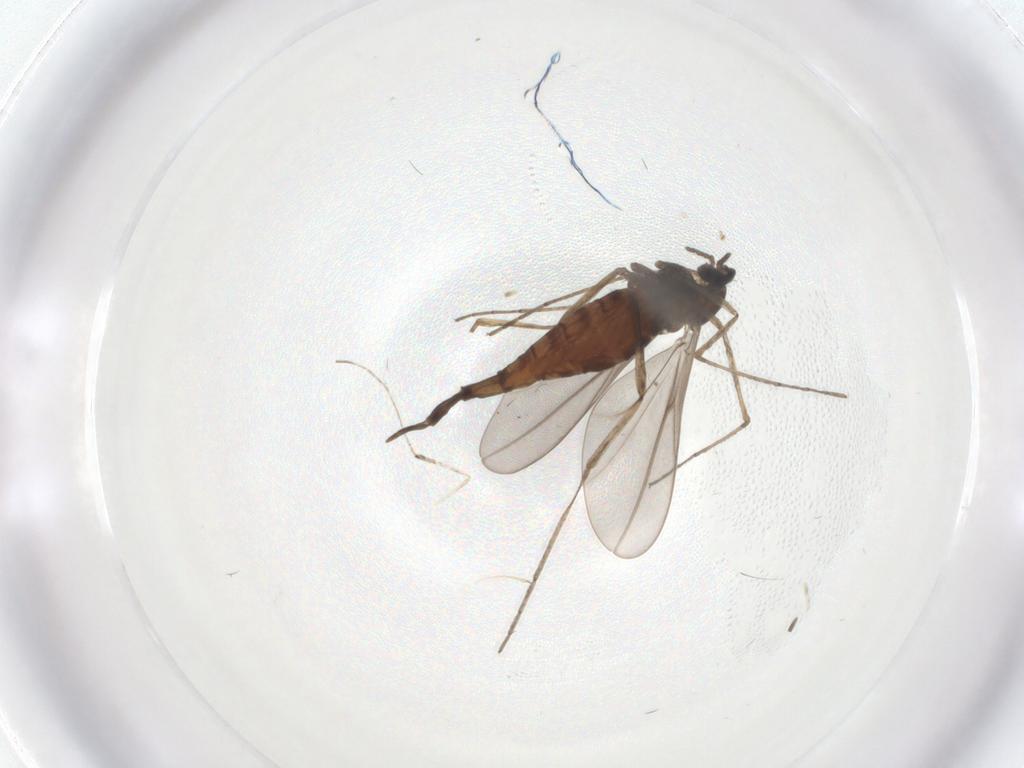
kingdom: Animalia
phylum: Arthropoda
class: Insecta
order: Diptera
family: Cecidomyiidae
